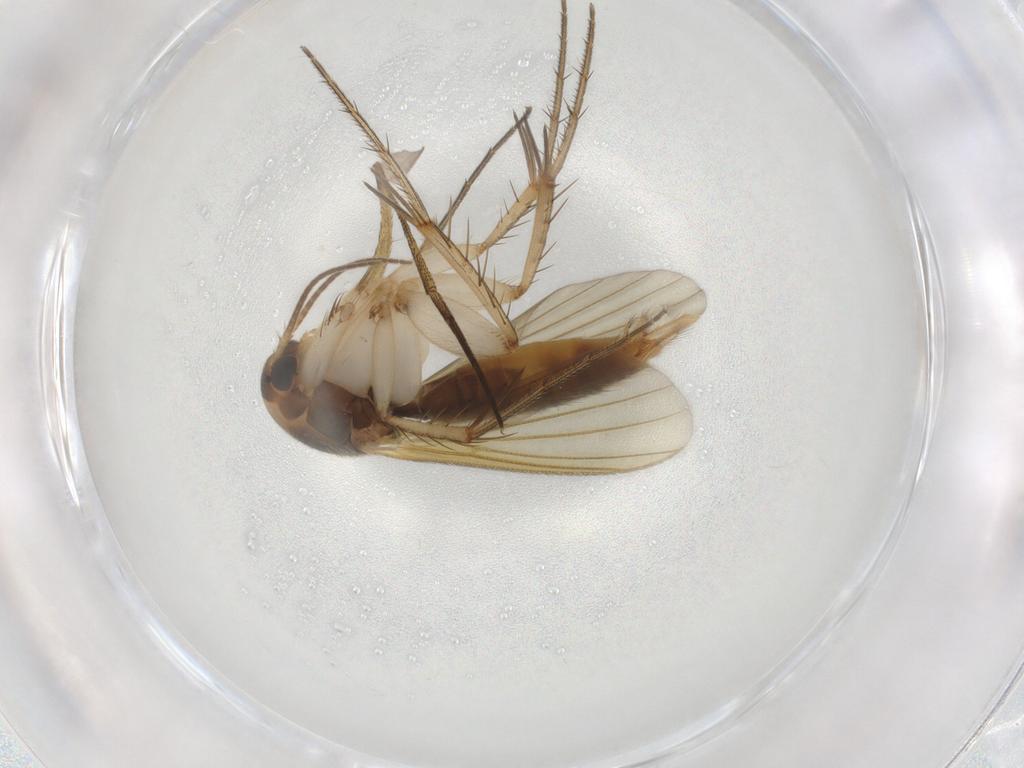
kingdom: Animalia
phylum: Arthropoda
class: Insecta
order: Diptera
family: Mycetophilidae
